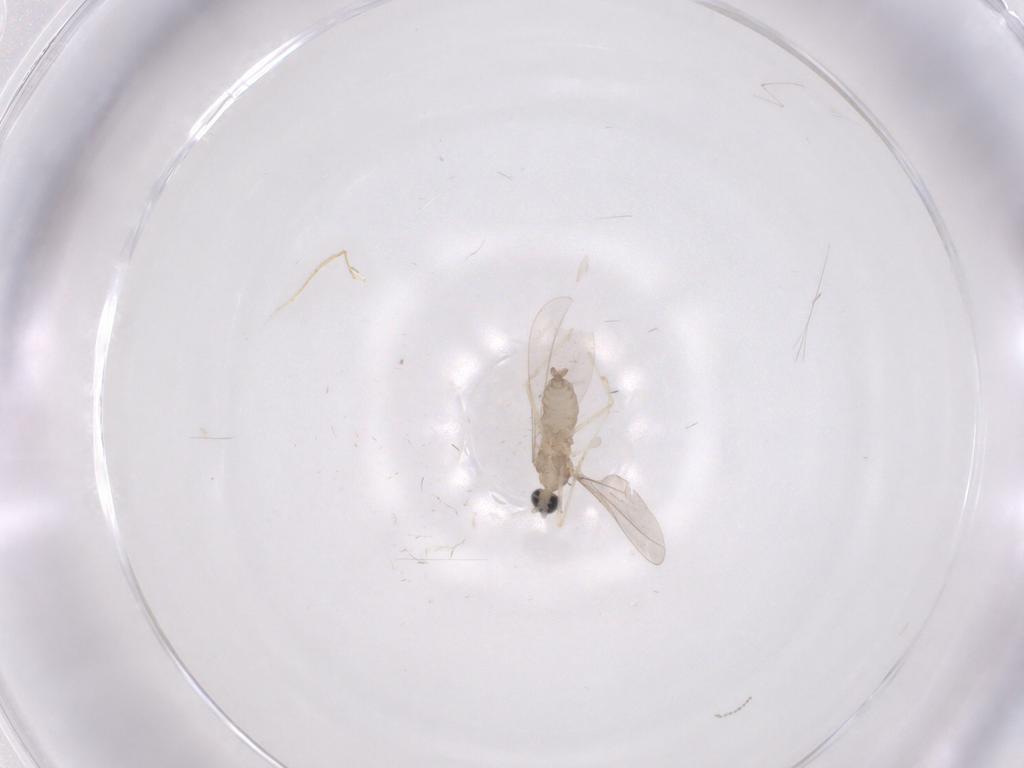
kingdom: Animalia
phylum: Arthropoda
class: Insecta
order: Diptera
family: Cecidomyiidae
